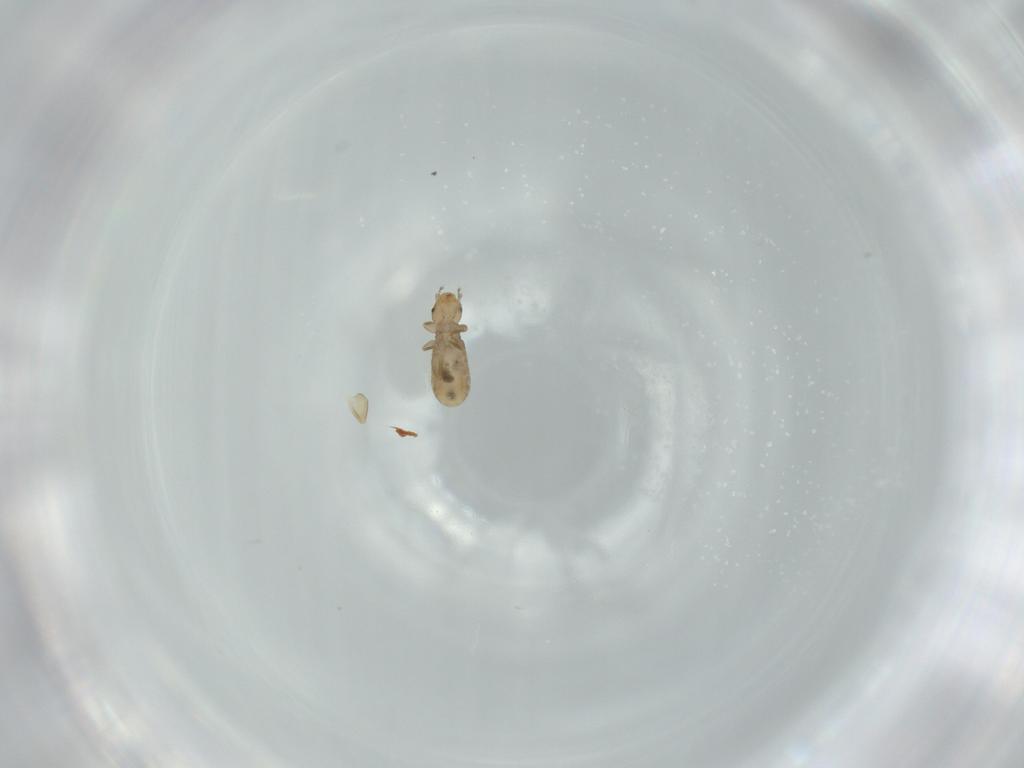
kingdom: Animalia
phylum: Arthropoda
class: Insecta
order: Psocodea
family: Liposcelididae
